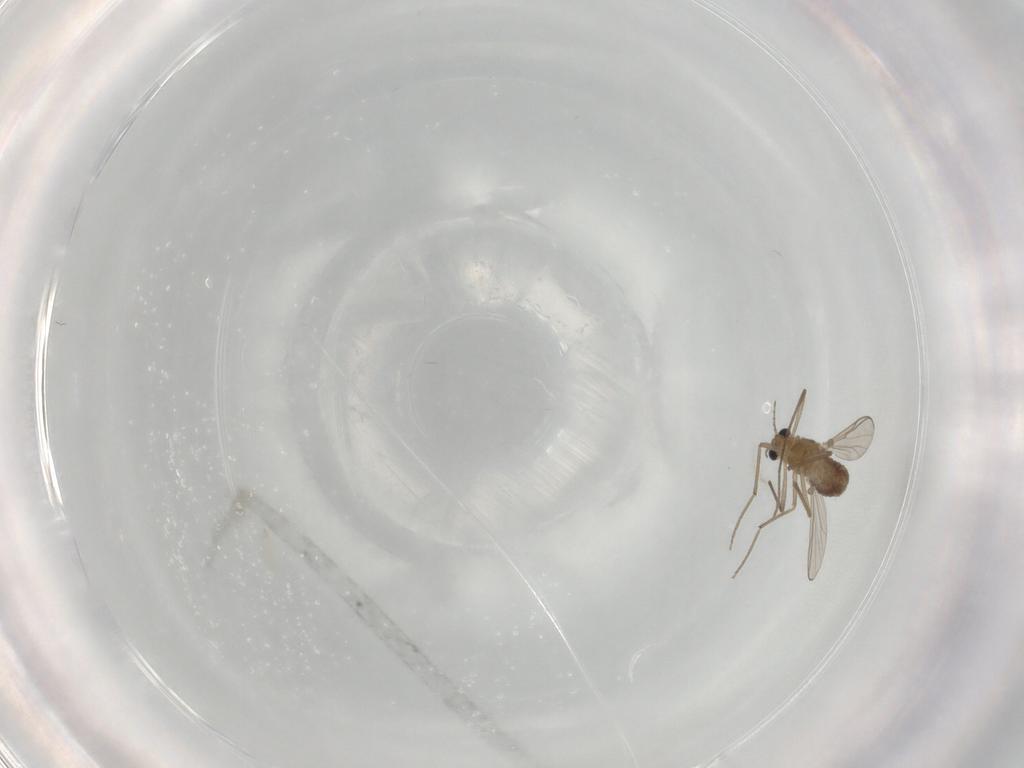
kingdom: Animalia
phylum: Arthropoda
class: Insecta
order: Diptera
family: Chironomidae
